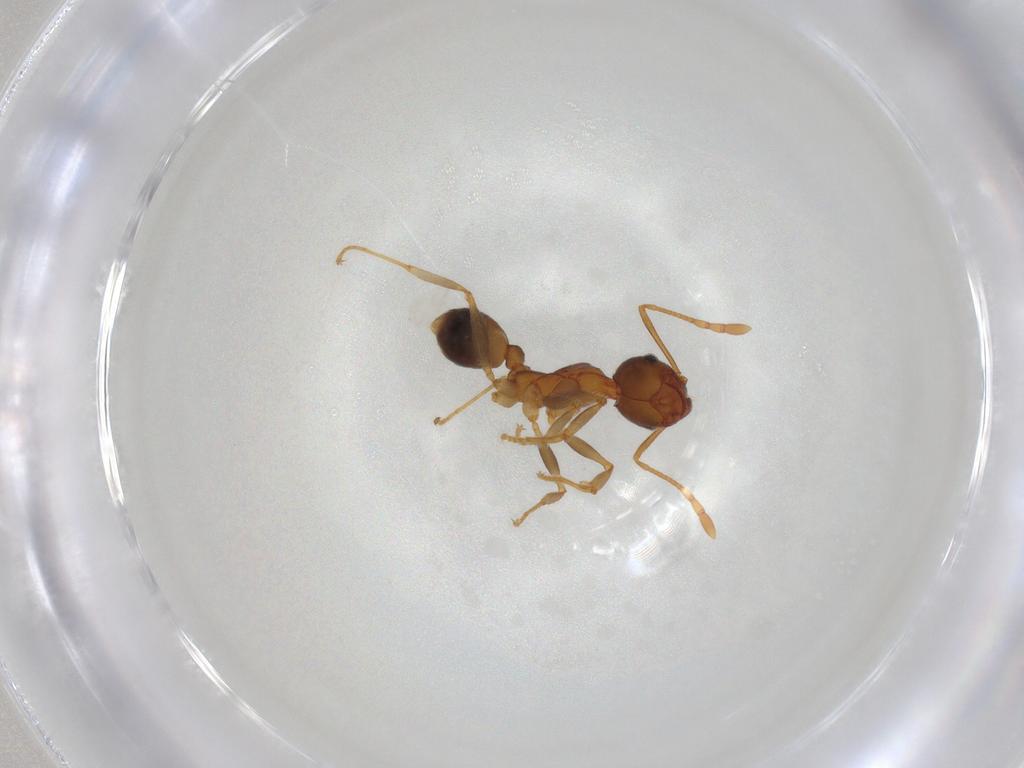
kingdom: Animalia
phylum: Arthropoda
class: Insecta
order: Hymenoptera
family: Formicidae
